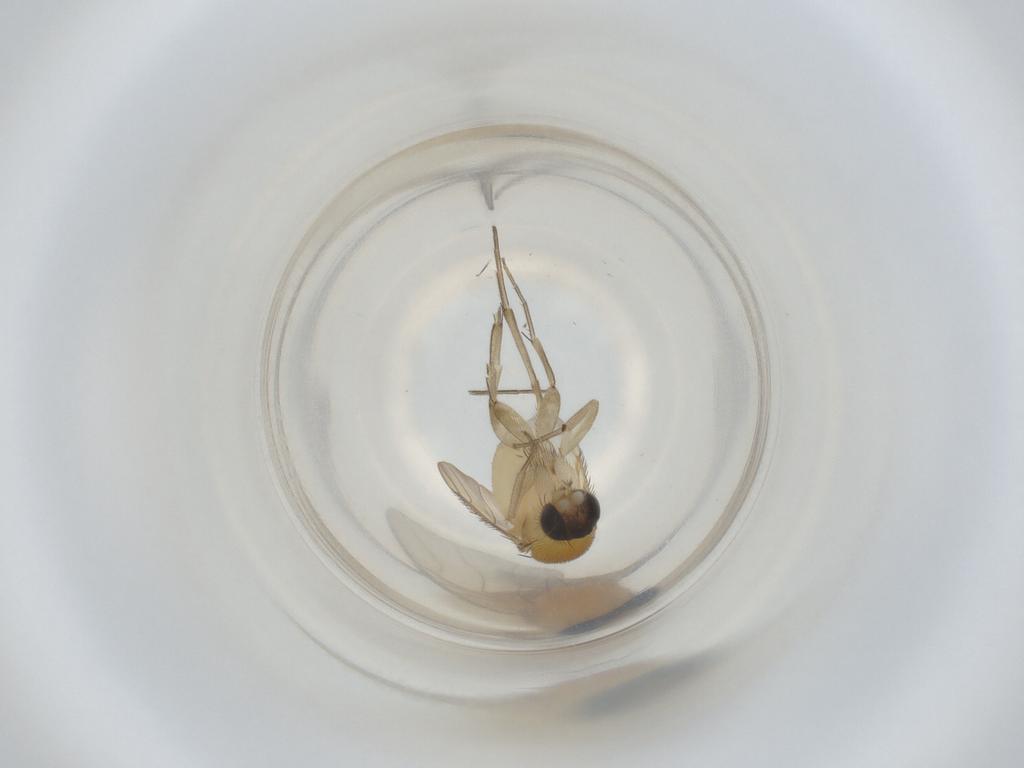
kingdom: Animalia
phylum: Arthropoda
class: Insecta
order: Diptera
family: Phoridae
